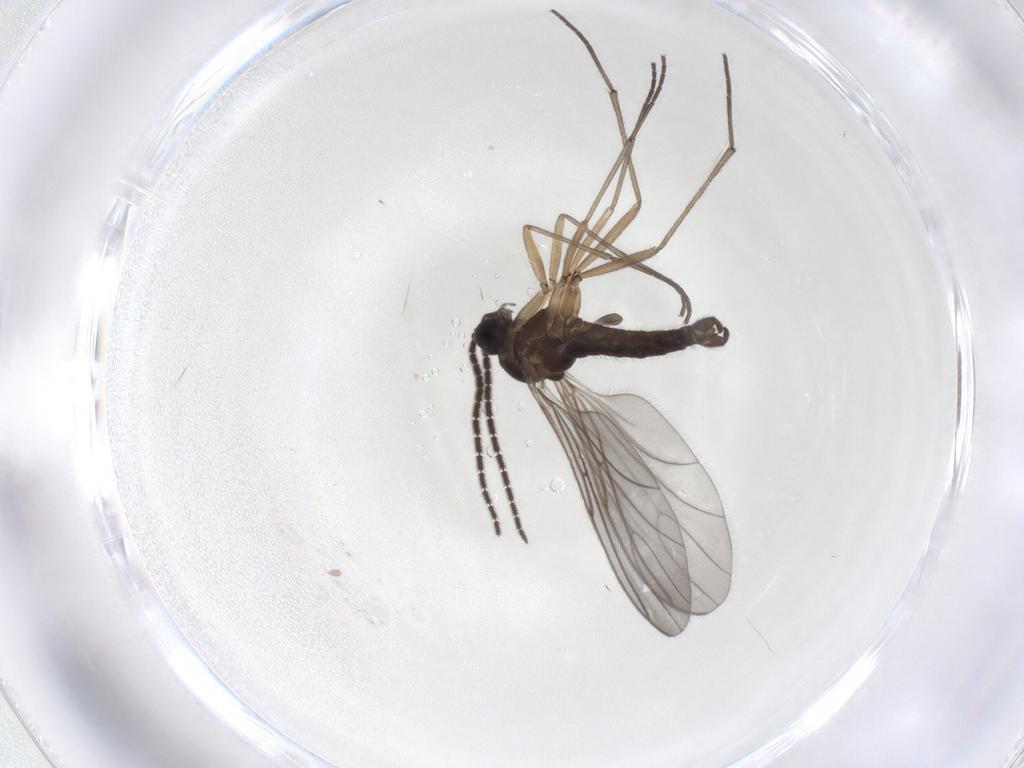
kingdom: Animalia
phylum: Arthropoda
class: Insecta
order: Diptera
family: Sciaridae
